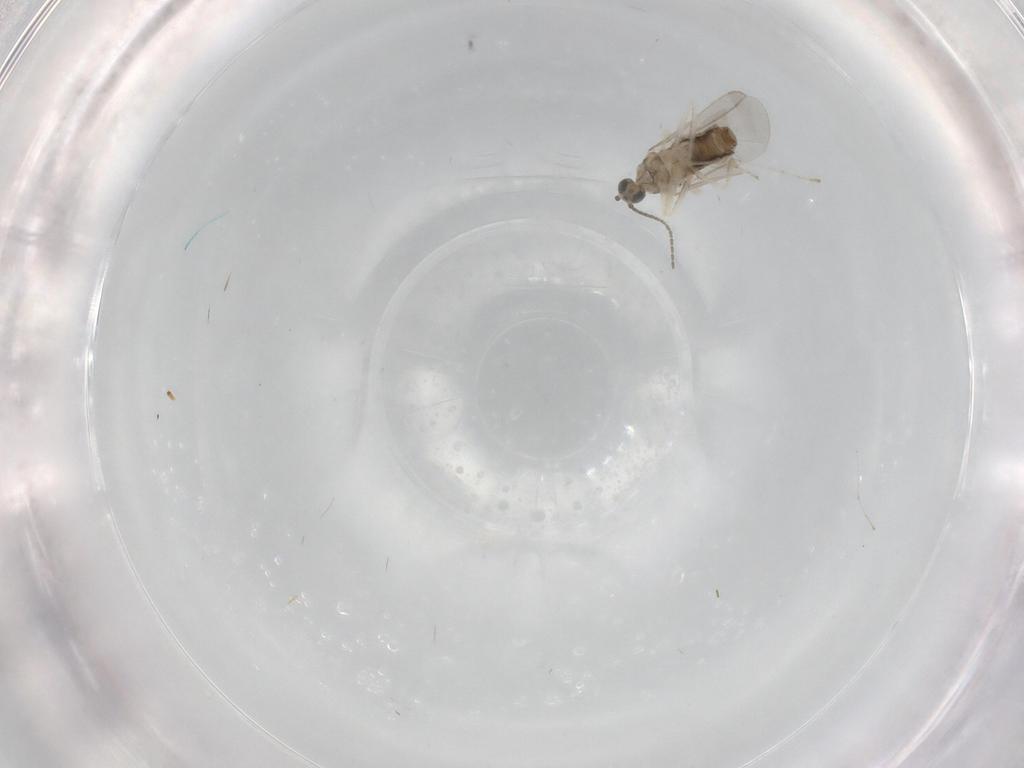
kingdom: Animalia
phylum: Arthropoda
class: Insecta
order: Diptera
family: Cecidomyiidae
